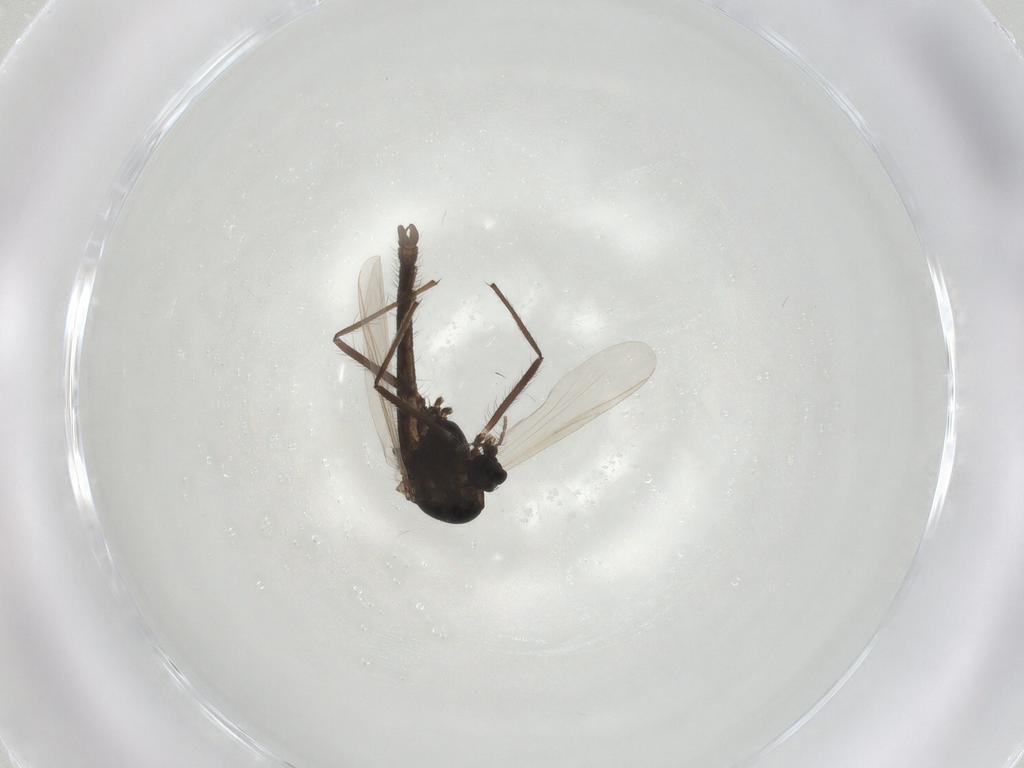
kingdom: Animalia
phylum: Arthropoda
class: Insecta
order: Diptera
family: Chironomidae
